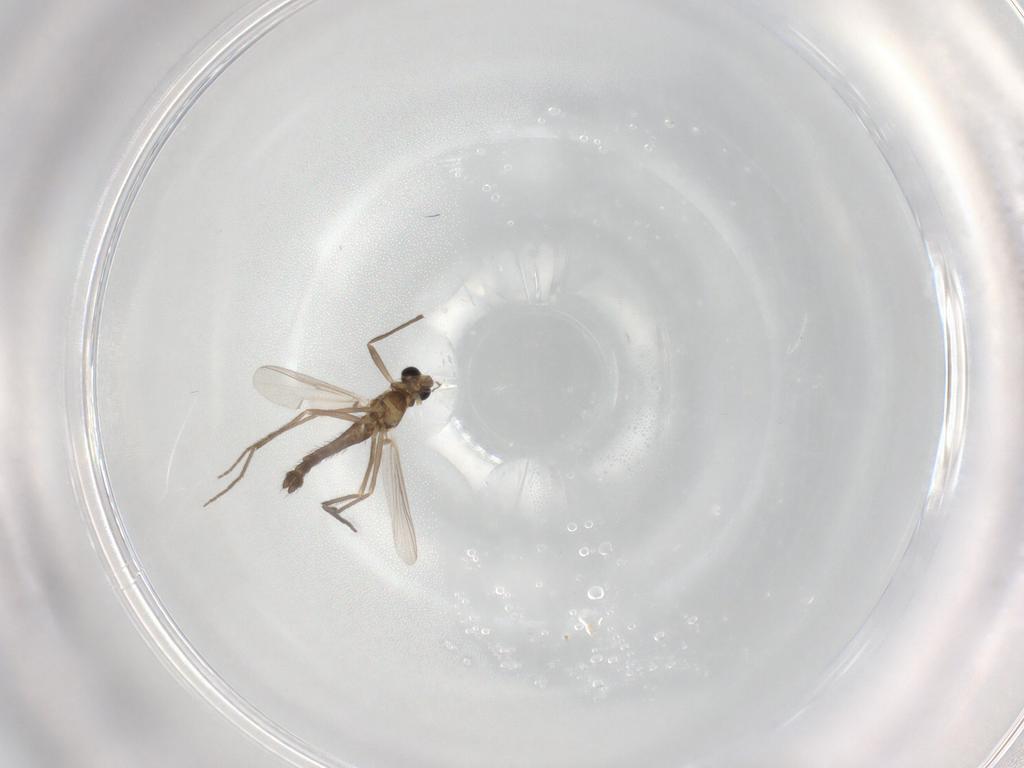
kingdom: Animalia
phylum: Arthropoda
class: Insecta
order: Diptera
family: Chironomidae
